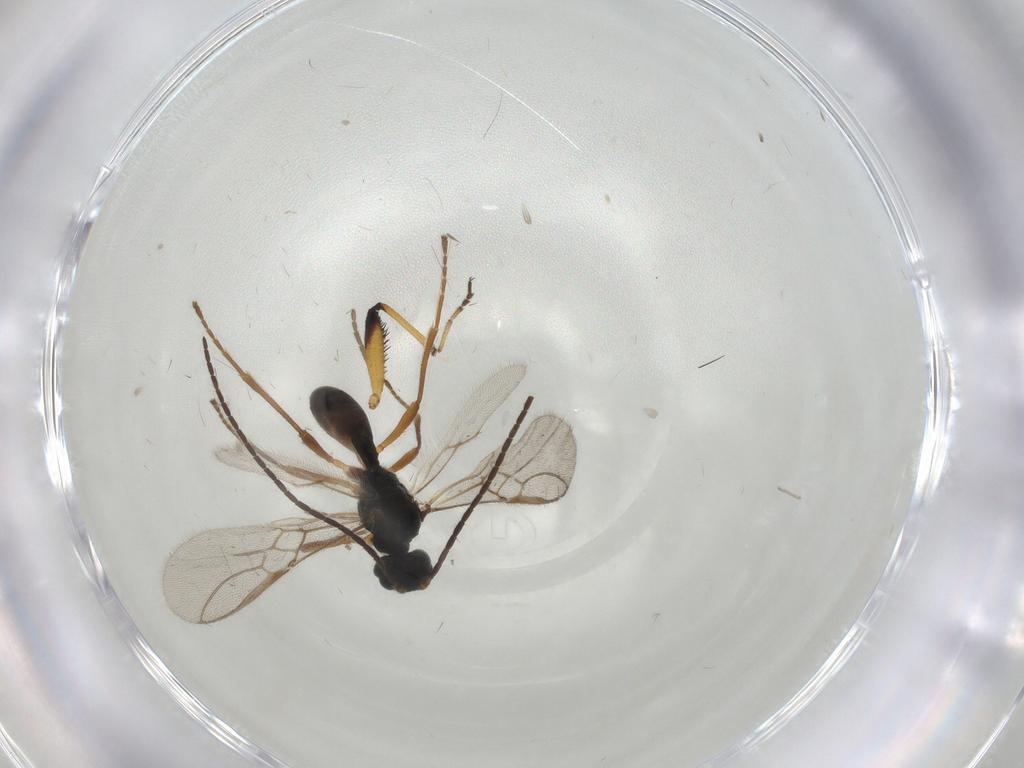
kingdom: Animalia
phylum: Arthropoda
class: Insecta
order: Hymenoptera
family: Braconidae
